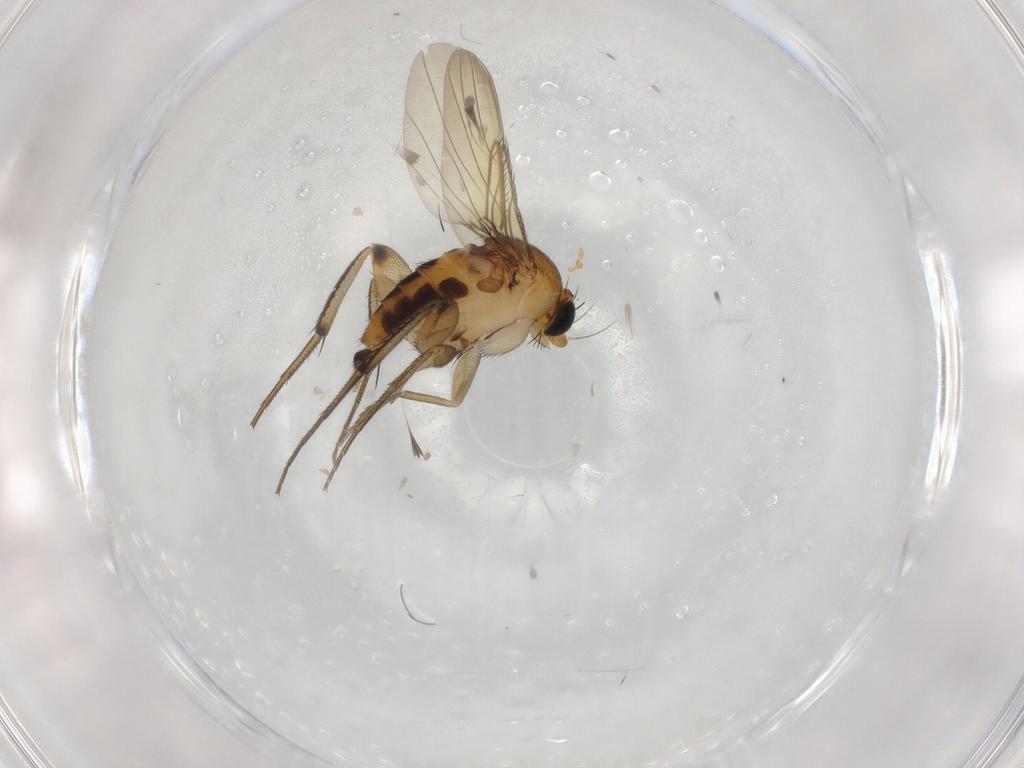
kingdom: Animalia
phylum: Arthropoda
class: Insecta
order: Diptera
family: Phoridae
